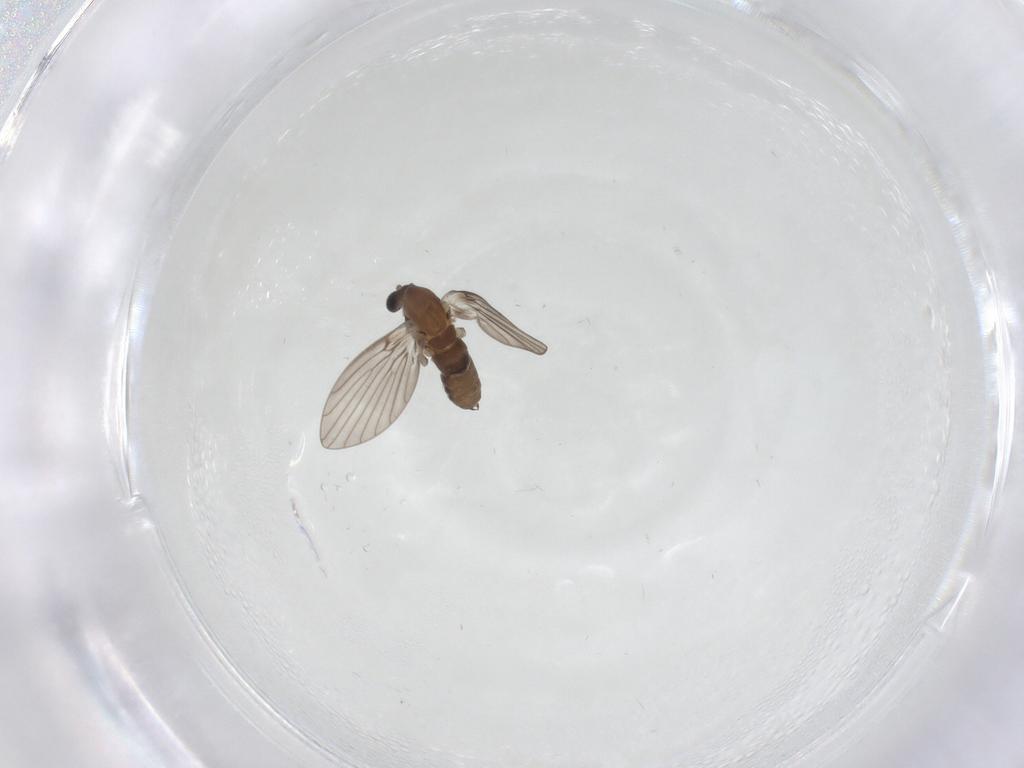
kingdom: Animalia
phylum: Arthropoda
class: Insecta
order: Diptera
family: Psychodidae
